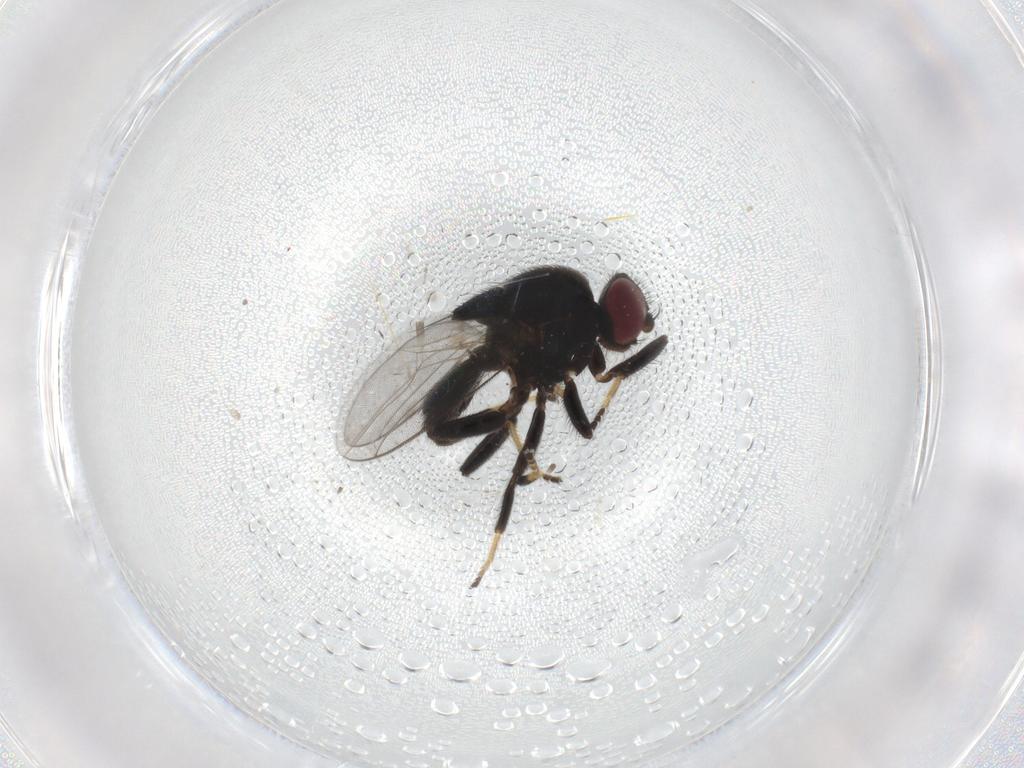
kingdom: Animalia
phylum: Arthropoda
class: Insecta
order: Diptera
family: Chloropidae
